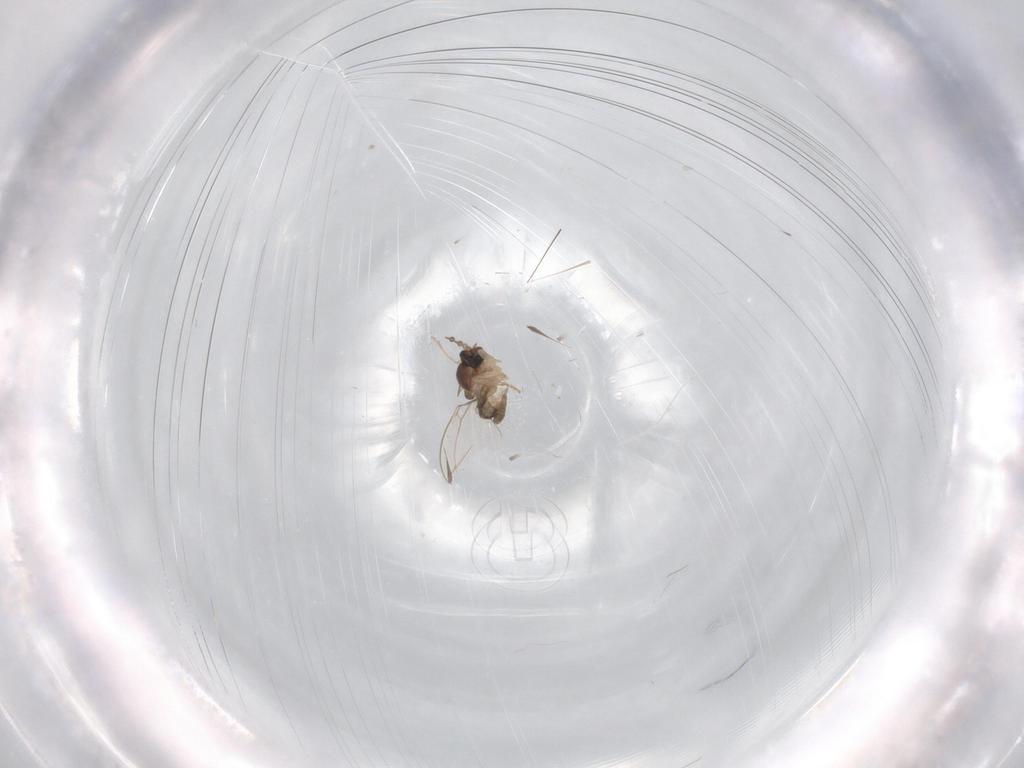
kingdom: Animalia
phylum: Arthropoda
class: Insecta
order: Diptera
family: Cecidomyiidae
